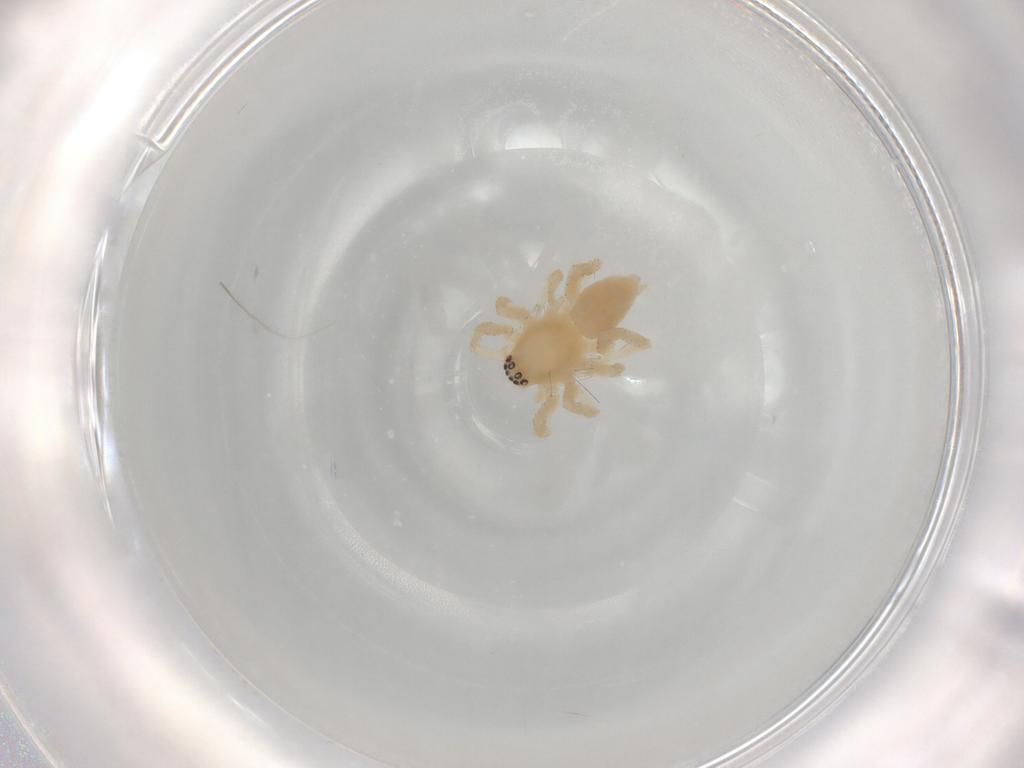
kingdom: Animalia
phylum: Arthropoda
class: Arachnida
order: Araneae
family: Anyphaenidae
